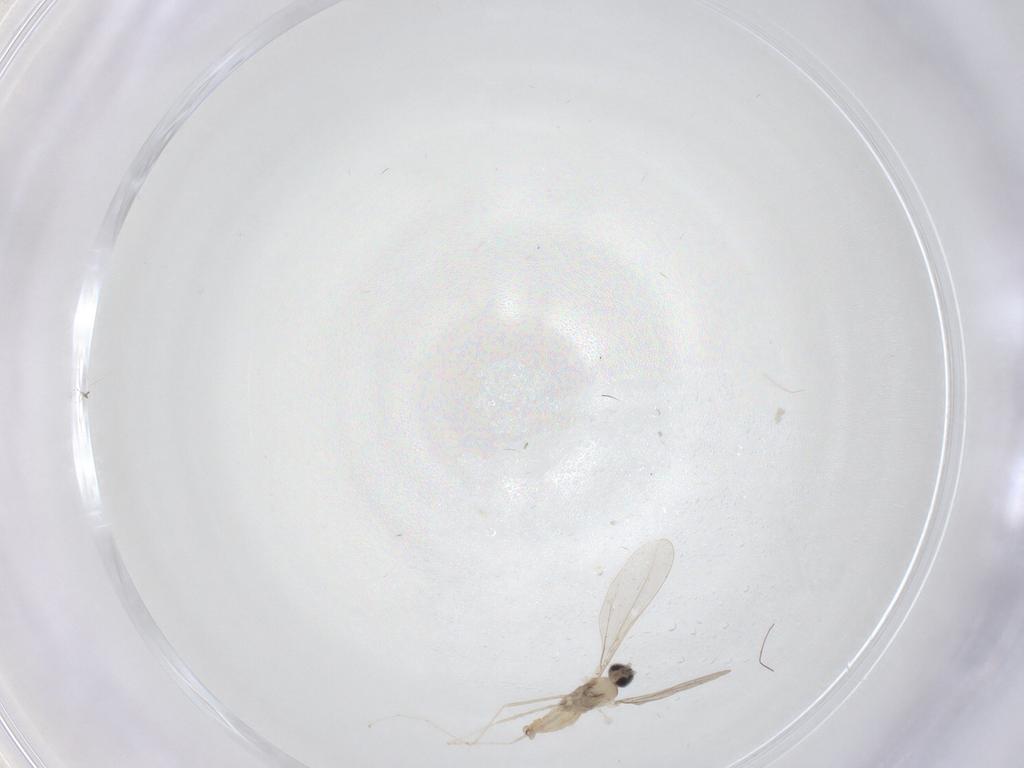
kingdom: Animalia
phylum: Arthropoda
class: Insecta
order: Diptera
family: Cecidomyiidae
